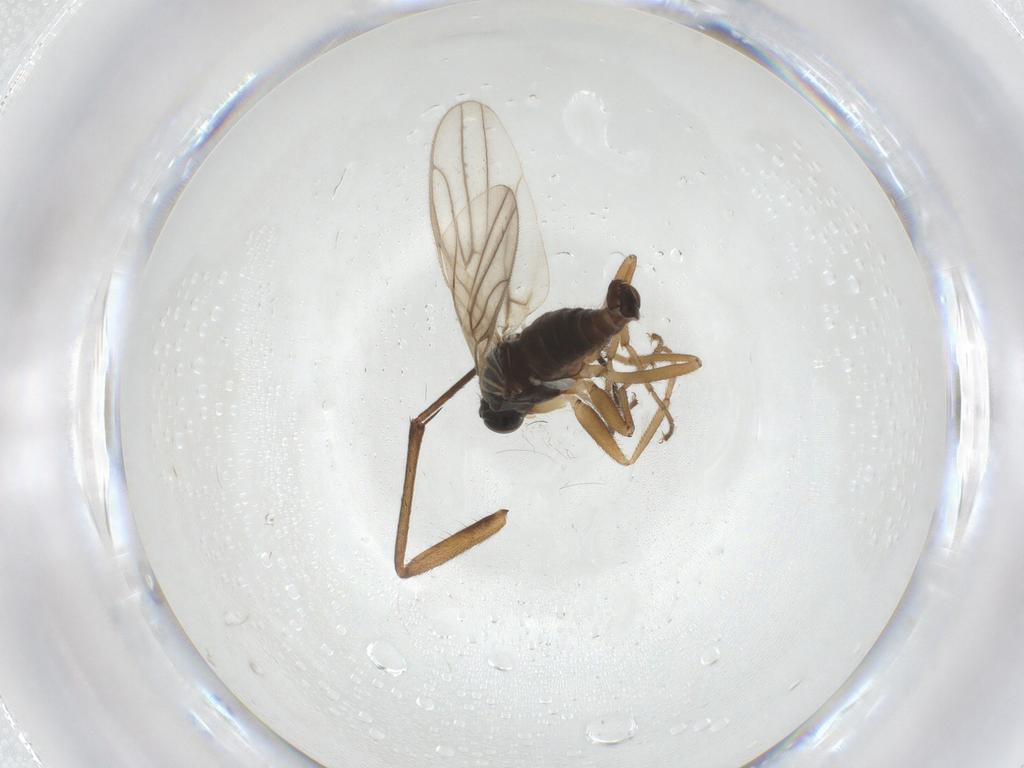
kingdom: Animalia
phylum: Arthropoda
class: Insecta
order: Diptera
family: Hybotidae
